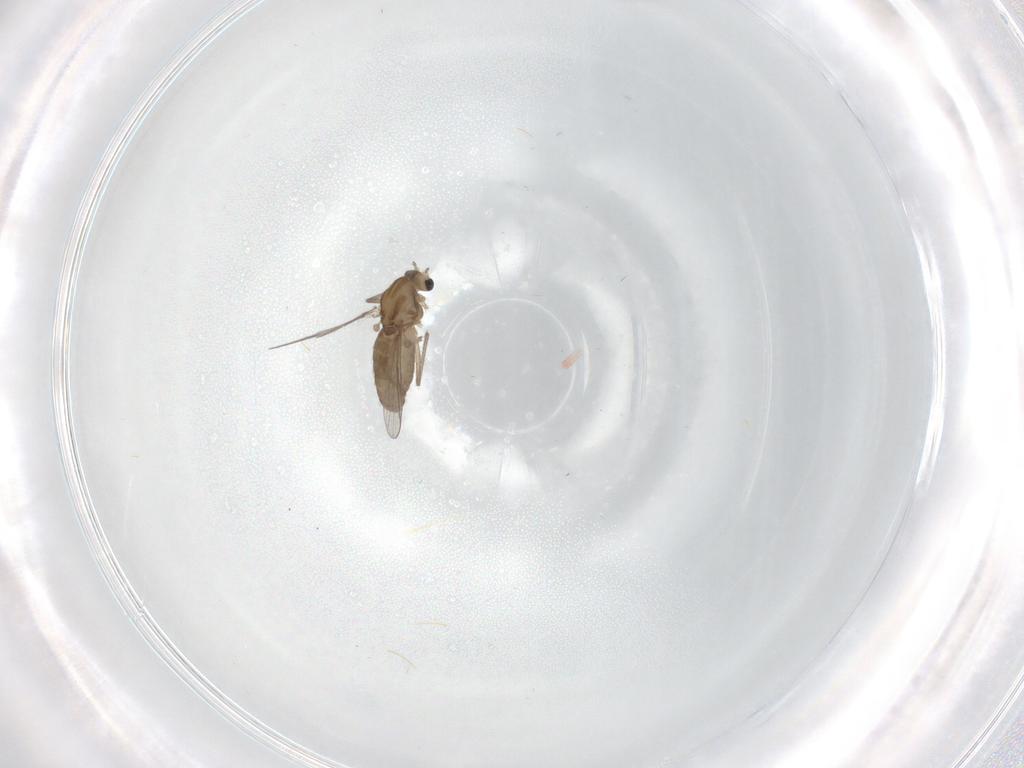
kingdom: Animalia
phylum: Arthropoda
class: Insecta
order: Diptera
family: Chironomidae
